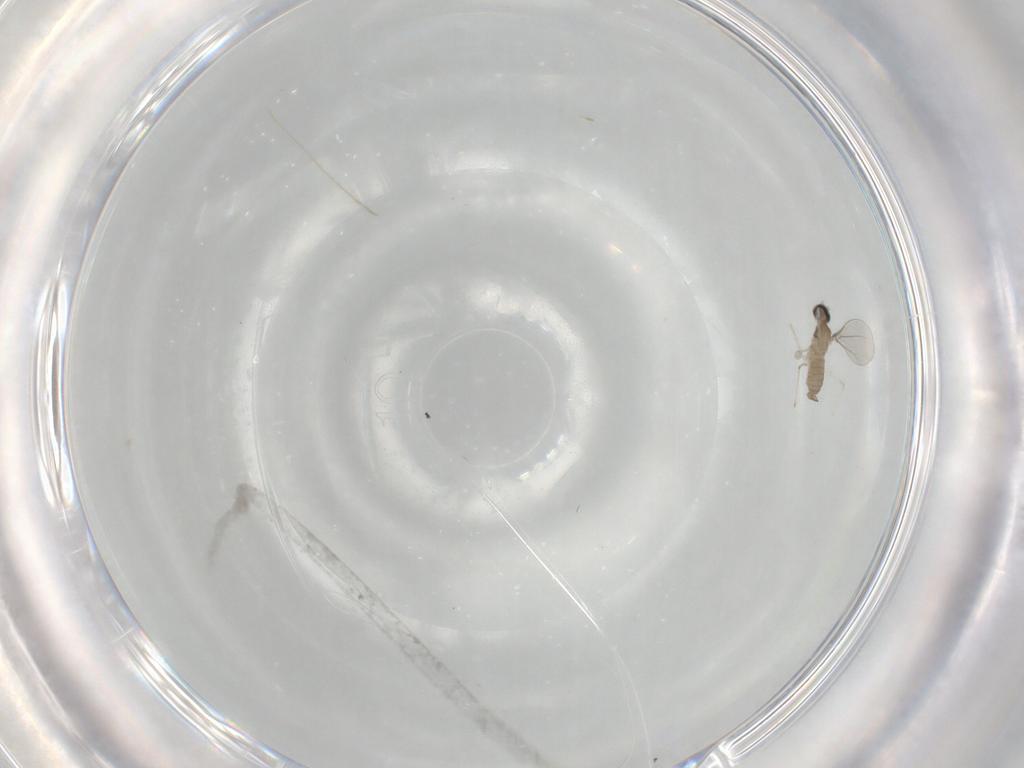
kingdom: Animalia
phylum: Arthropoda
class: Insecta
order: Diptera
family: Cecidomyiidae
